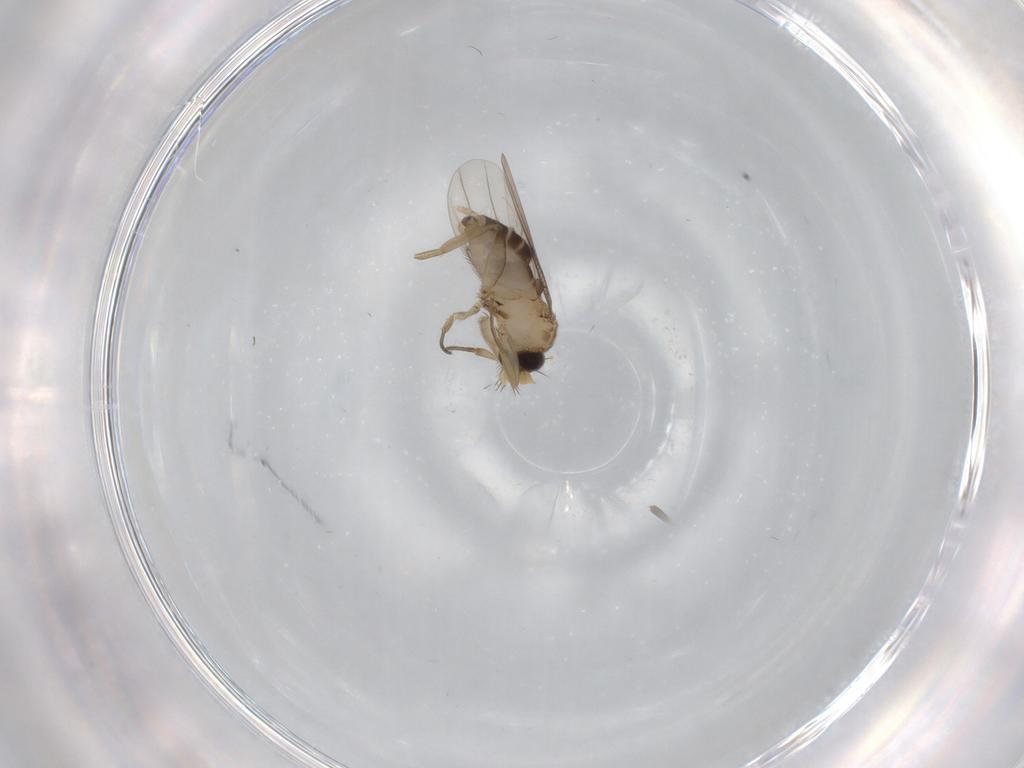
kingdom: Animalia
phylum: Arthropoda
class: Insecta
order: Diptera
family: Phoridae
